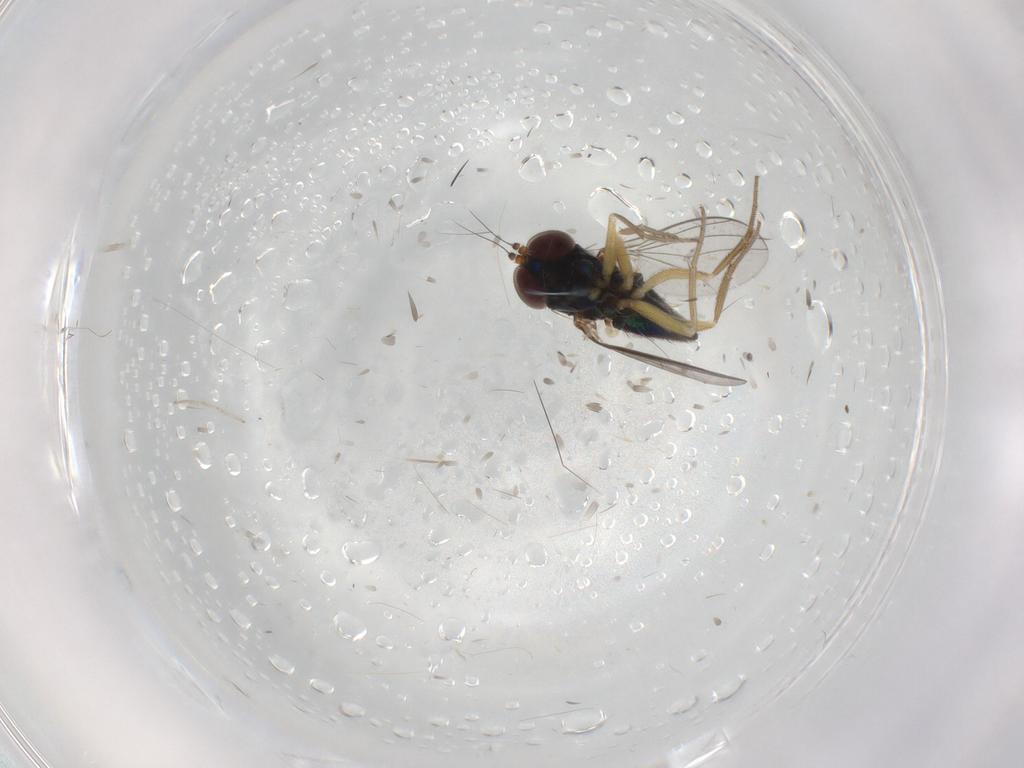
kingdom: Animalia
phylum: Arthropoda
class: Insecta
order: Diptera
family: Dolichopodidae
